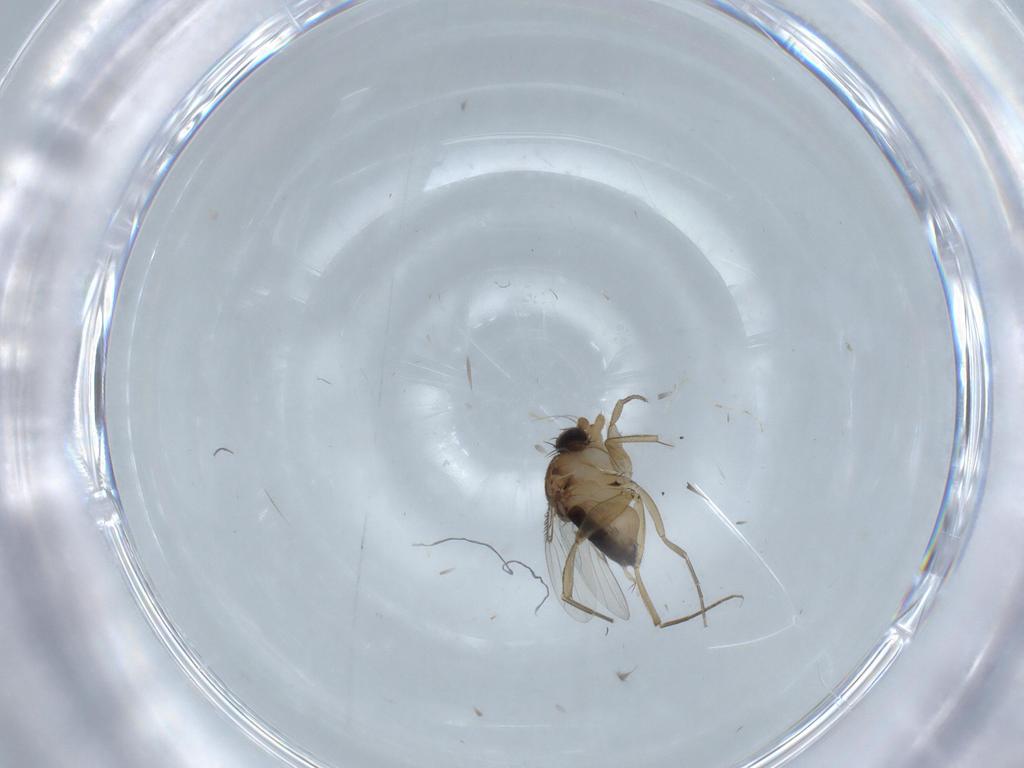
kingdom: Animalia
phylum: Arthropoda
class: Insecta
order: Diptera
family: Cecidomyiidae
